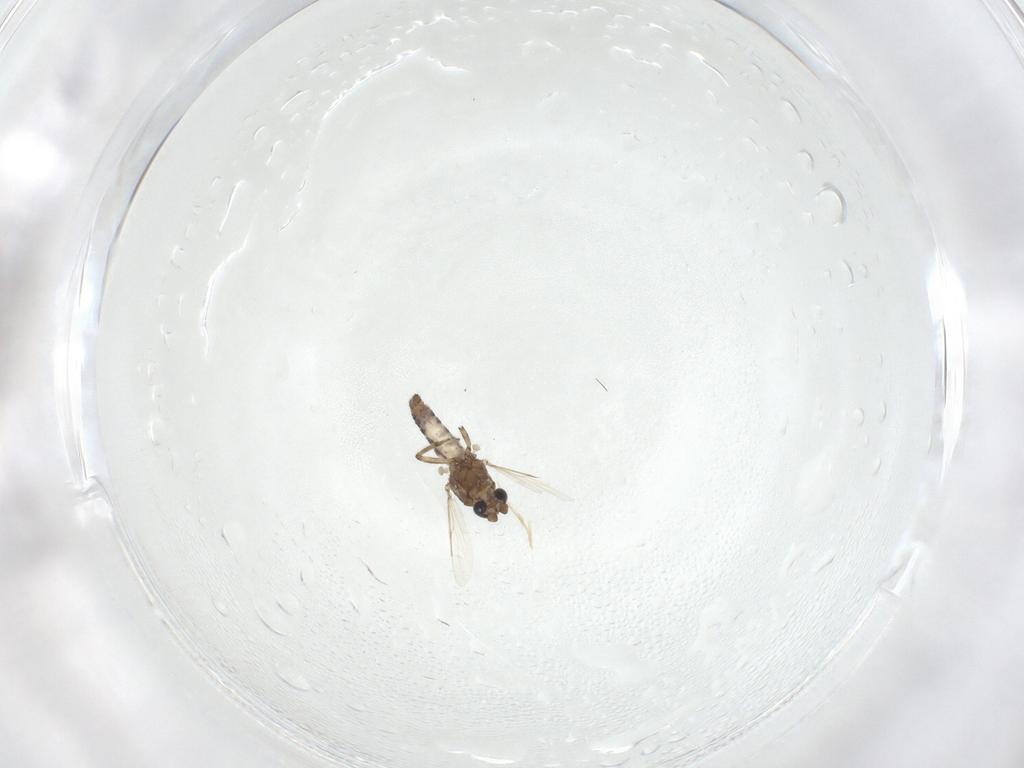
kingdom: Animalia
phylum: Arthropoda
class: Insecta
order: Diptera
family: Ceratopogonidae
